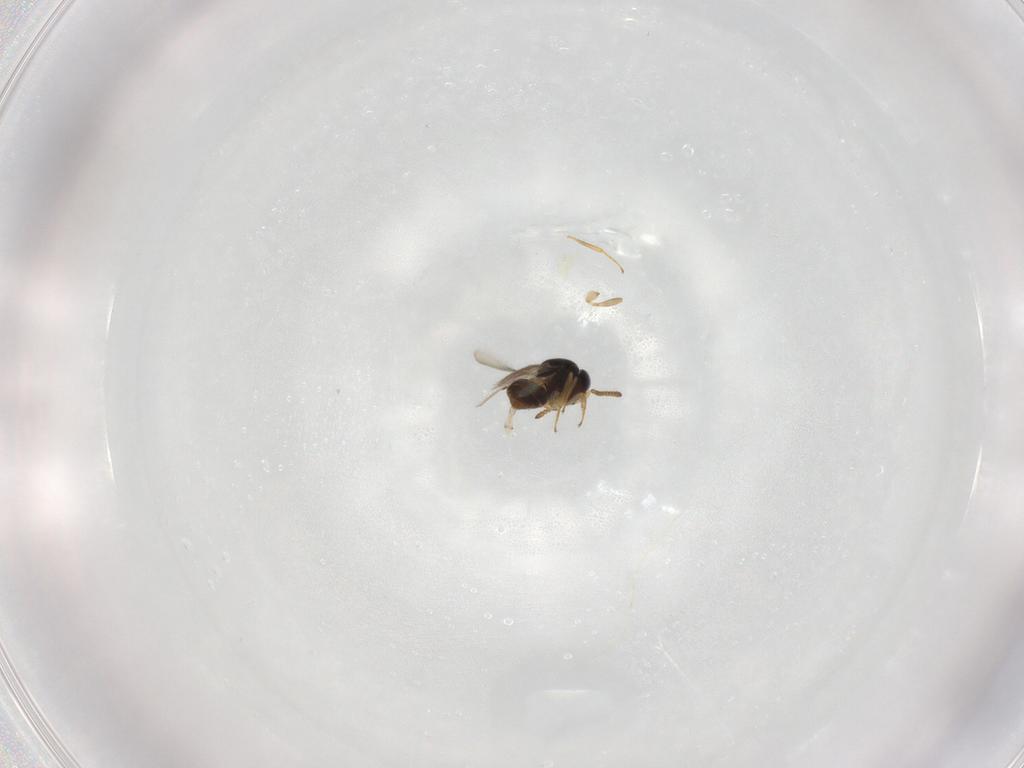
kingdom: Animalia
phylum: Arthropoda
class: Insecta
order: Hymenoptera
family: Scelionidae
